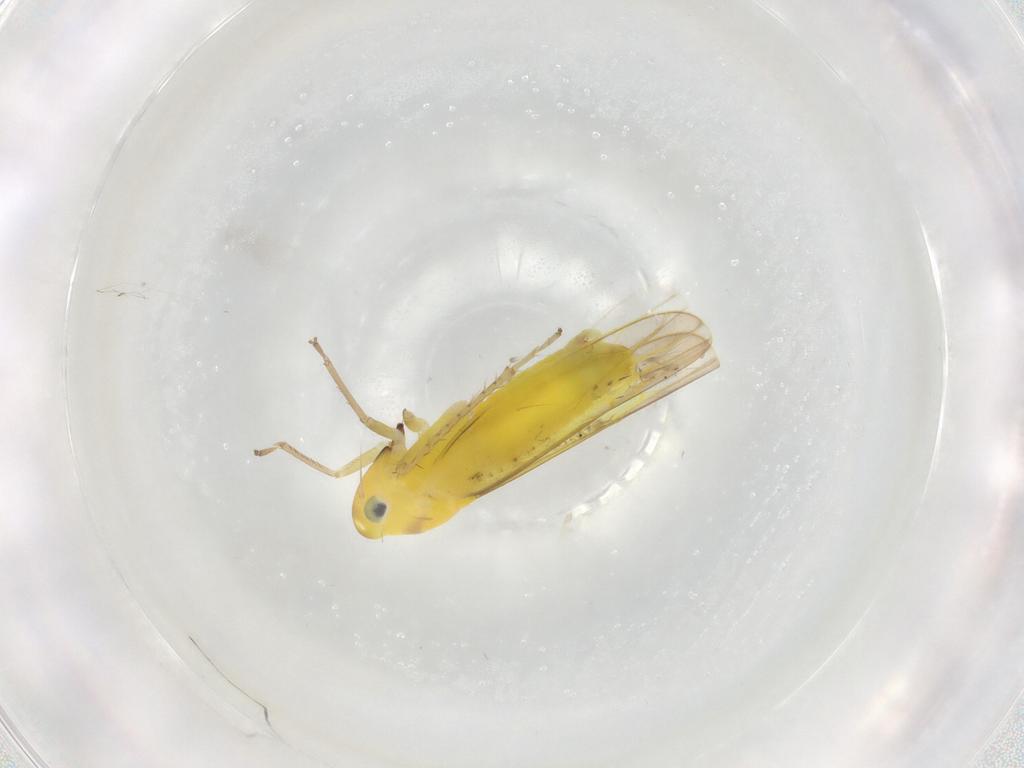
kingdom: Animalia
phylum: Arthropoda
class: Insecta
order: Hemiptera
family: Cicadellidae
